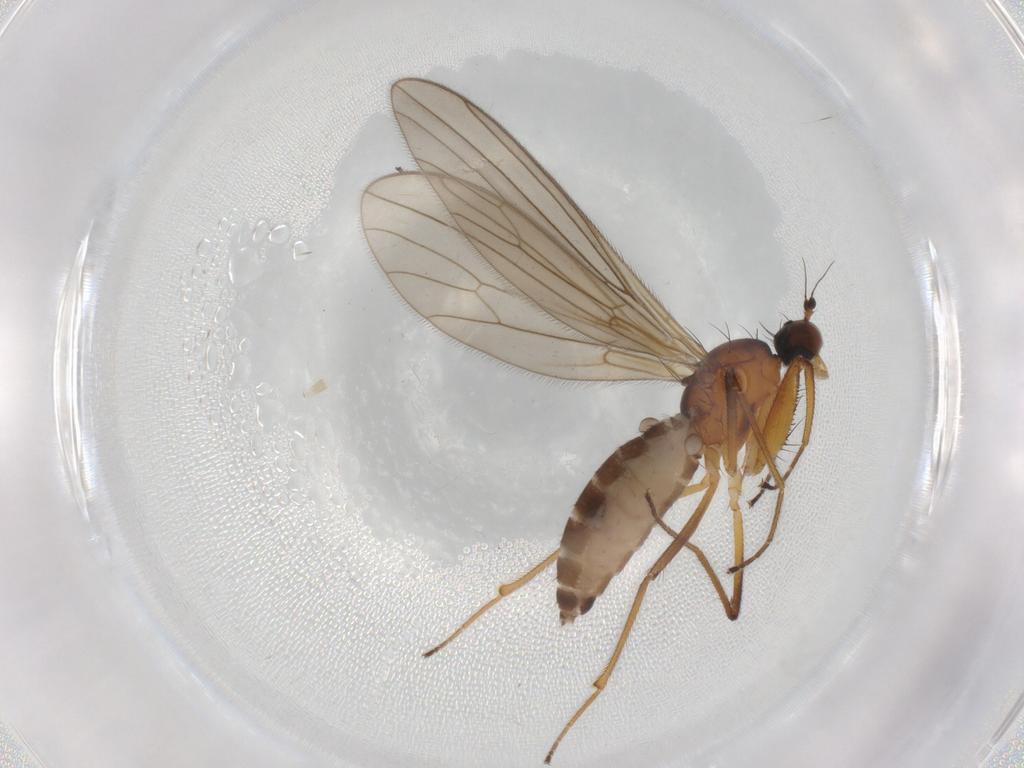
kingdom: Animalia
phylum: Arthropoda
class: Insecta
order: Diptera
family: Empididae
